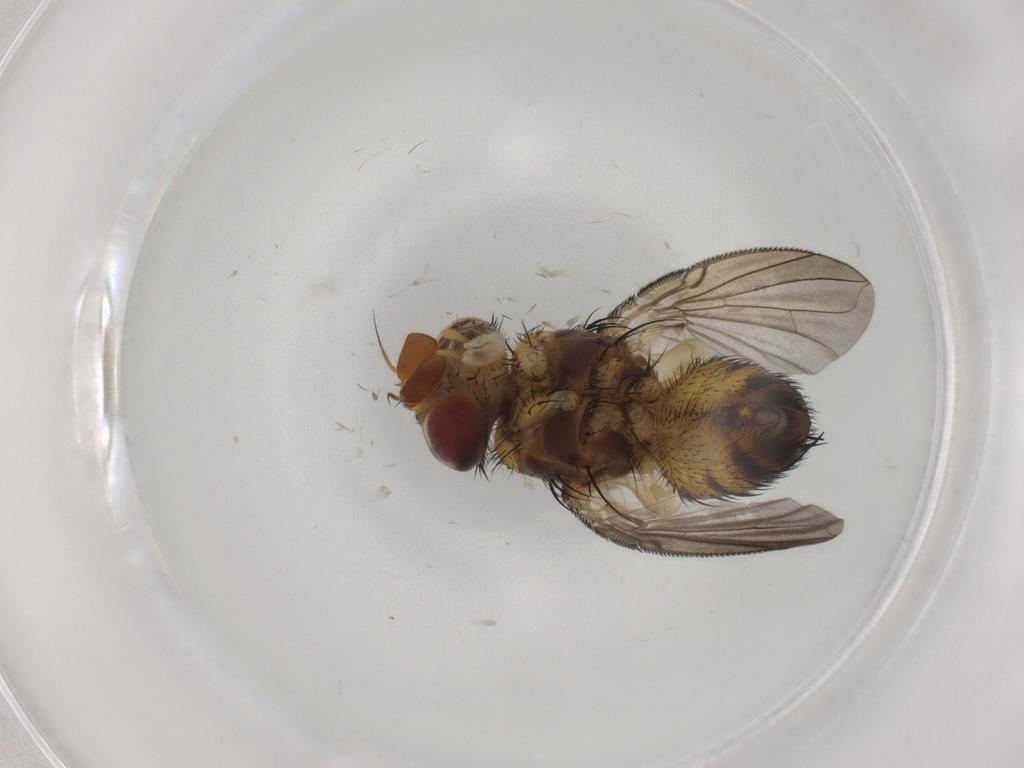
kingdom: Animalia
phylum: Arthropoda
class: Insecta
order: Diptera
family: Tachinidae
